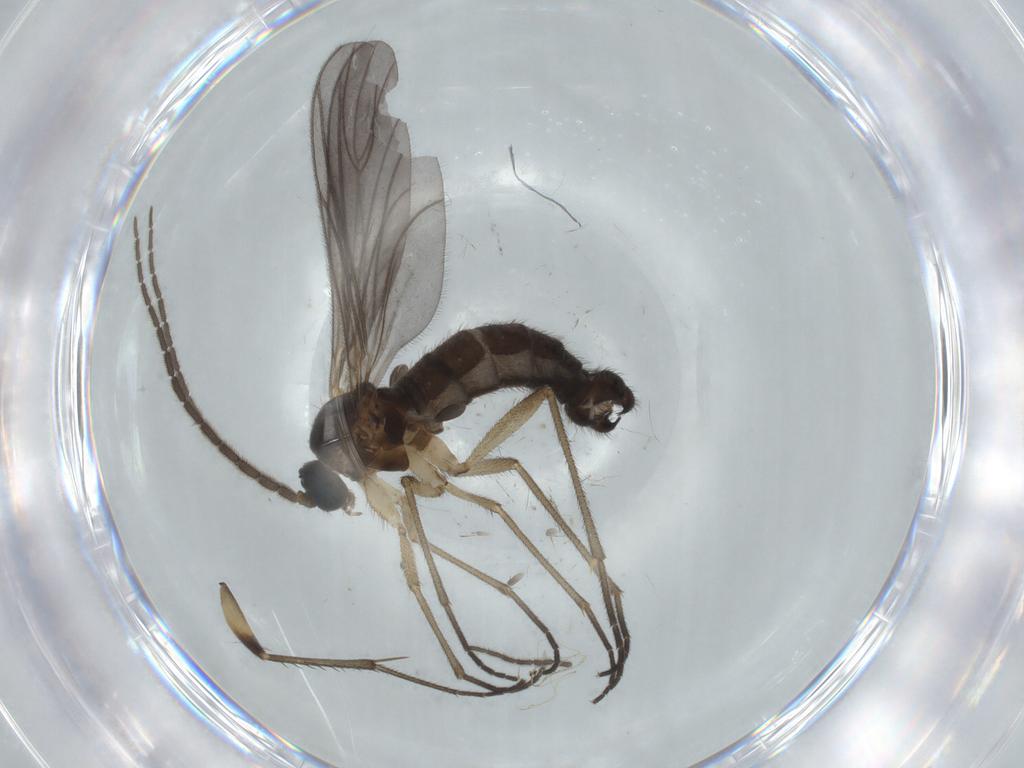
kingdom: Animalia
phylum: Arthropoda
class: Insecta
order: Diptera
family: Sciaridae
